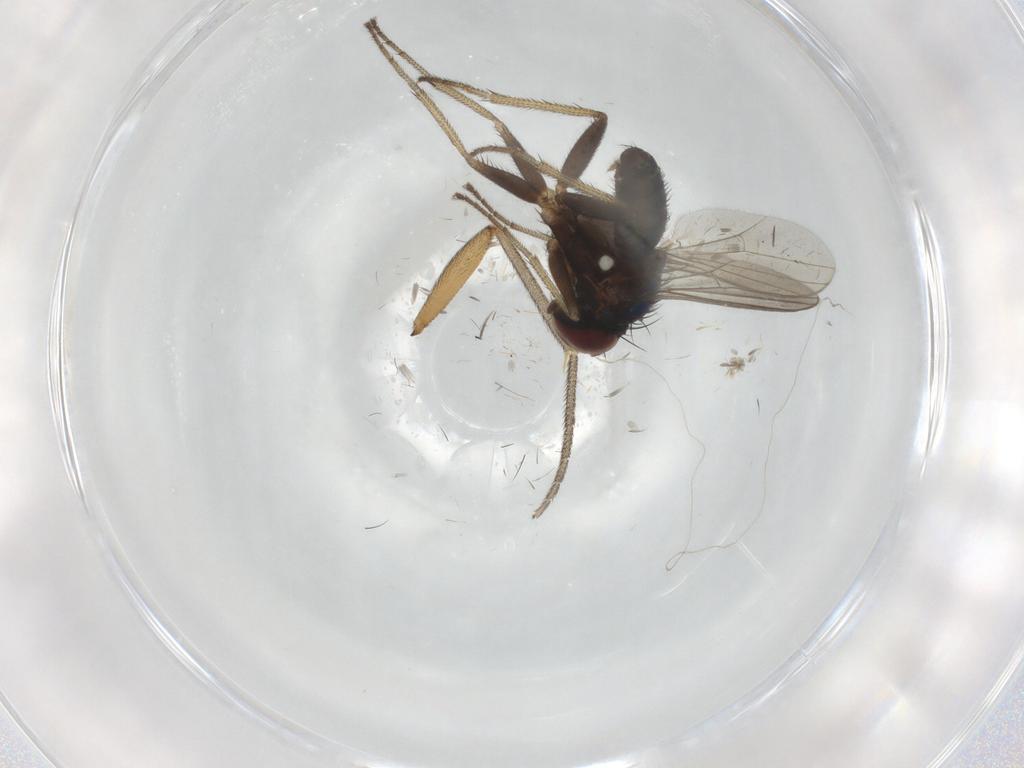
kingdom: Animalia
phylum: Arthropoda
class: Insecta
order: Diptera
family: Dolichopodidae
